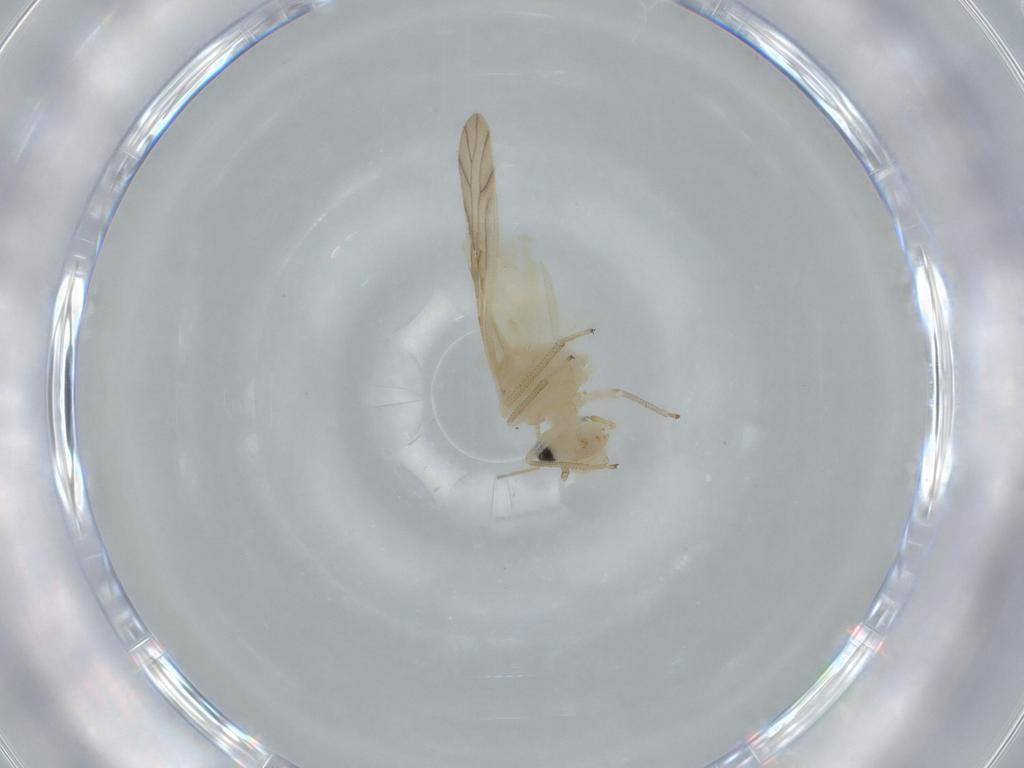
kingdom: Animalia
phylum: Arthropoda
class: Insecta
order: Psocodea
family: Caeciliusidae
